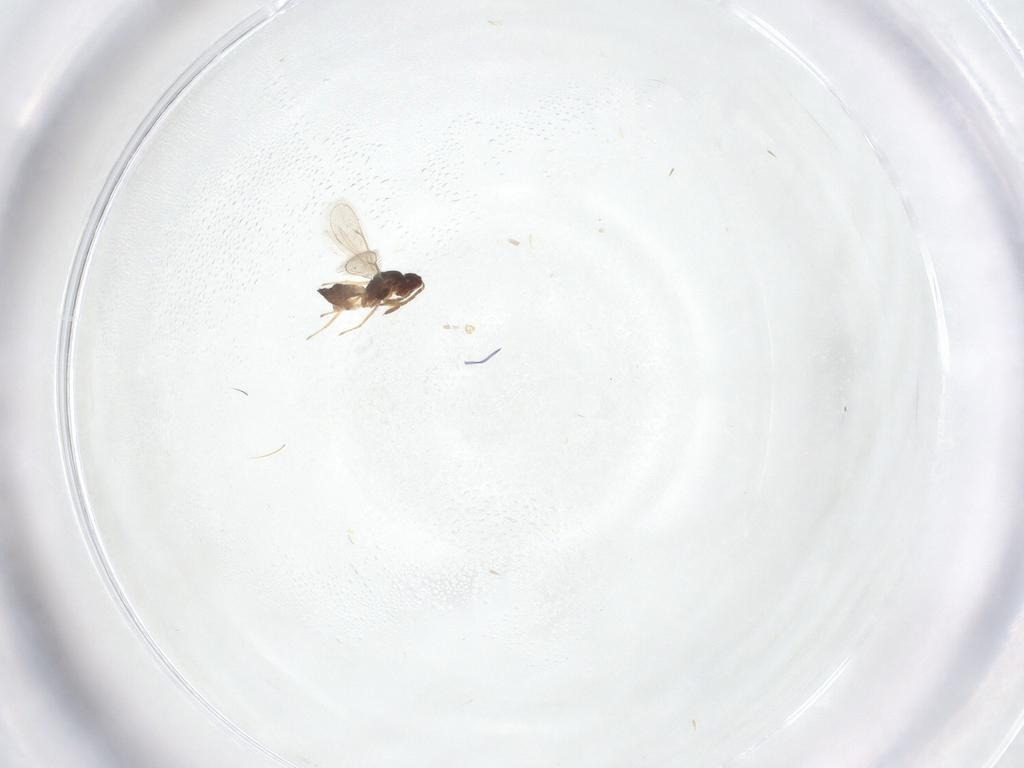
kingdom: Animalia
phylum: Arthropoda
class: Insecta
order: Hymenoptera
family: Eulophidae
